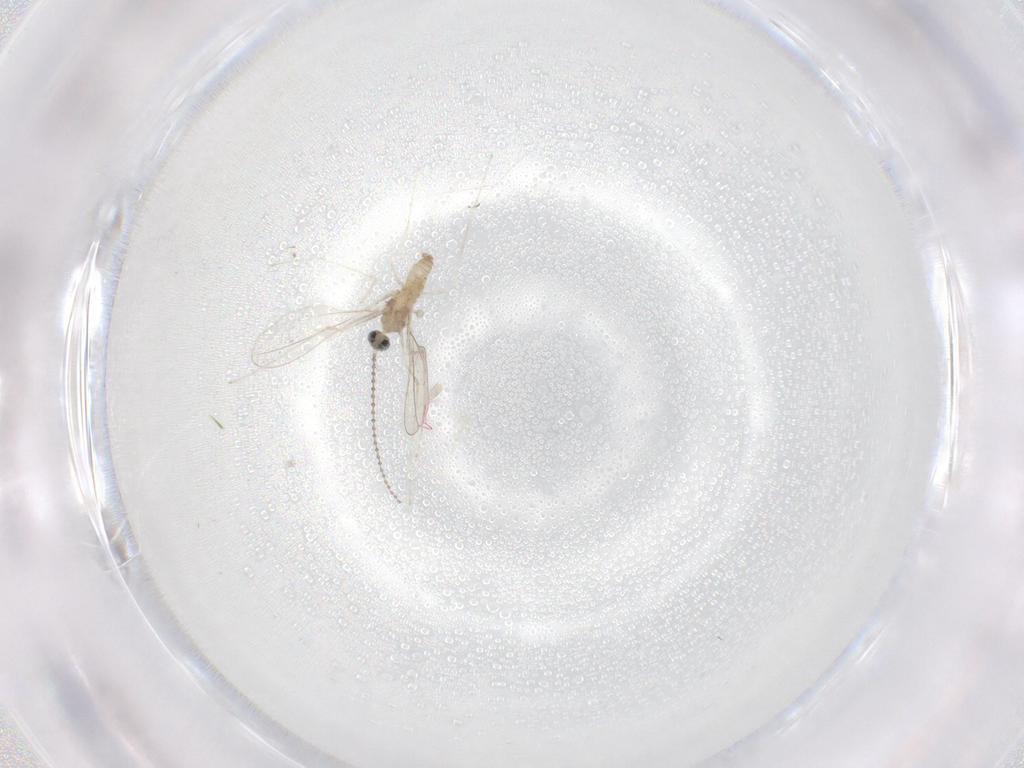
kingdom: Animalia
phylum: Arthropoda
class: Insecta
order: Diptera
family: Cecidomyiidae
